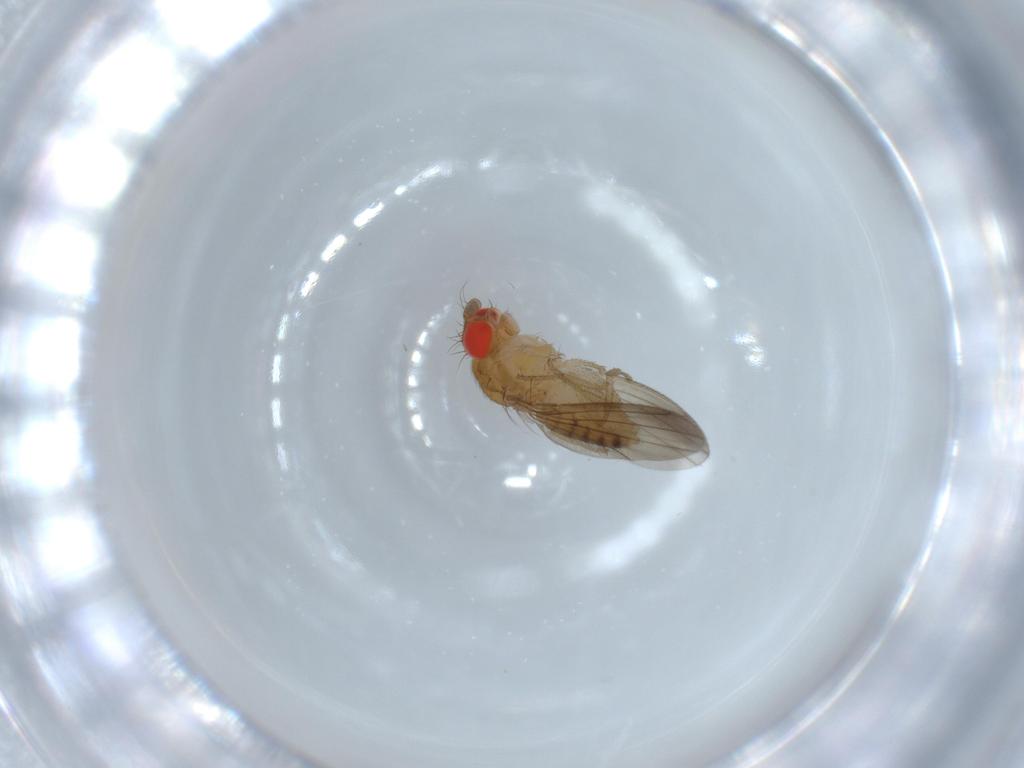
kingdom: Animalia
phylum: Arthropoda
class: Insecta
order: Diptera
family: Drosophilidae
